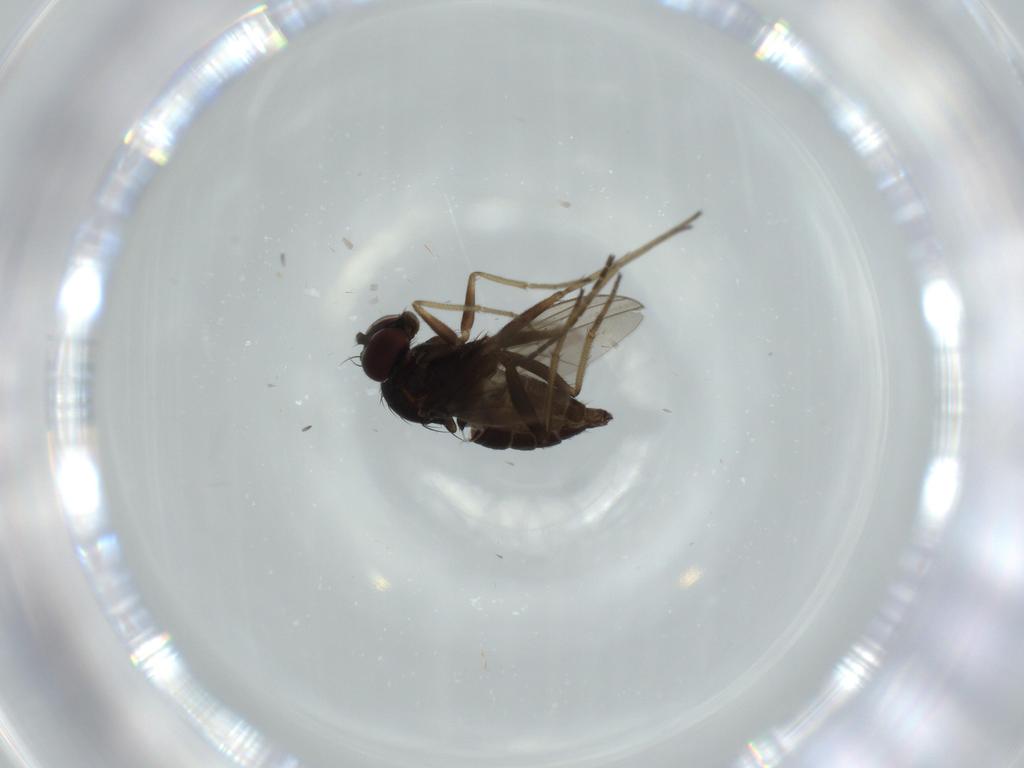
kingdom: Animalia
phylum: Arthropoda
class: Insecta
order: Diptera
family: Dolichopodidae
